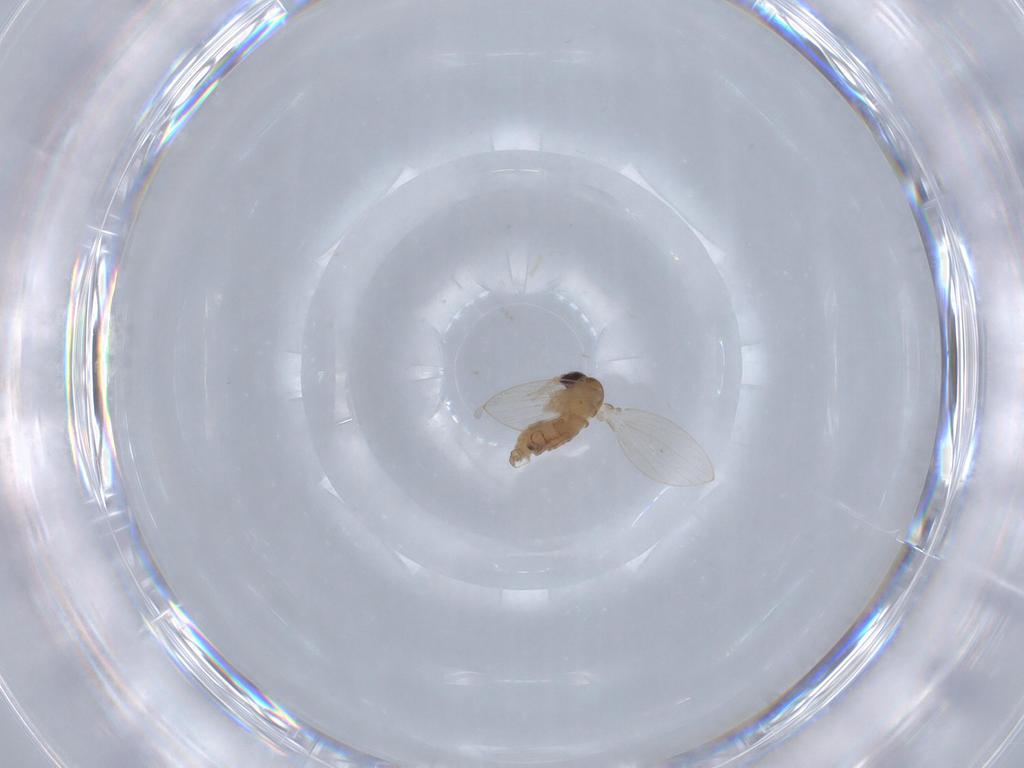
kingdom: Animalia
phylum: Arthropoda
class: Insecta
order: Diptera
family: Psychodidae
